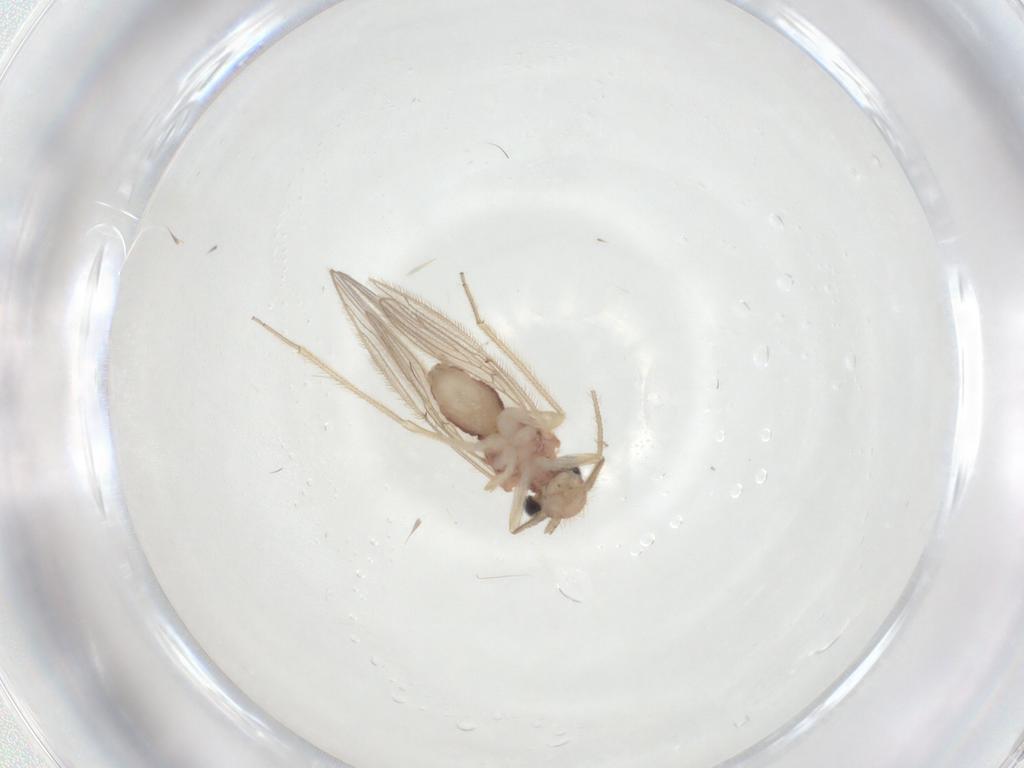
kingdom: Animalia
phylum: Arthropoda
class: Insecta
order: Psocodea
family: Cladiopsocidae
